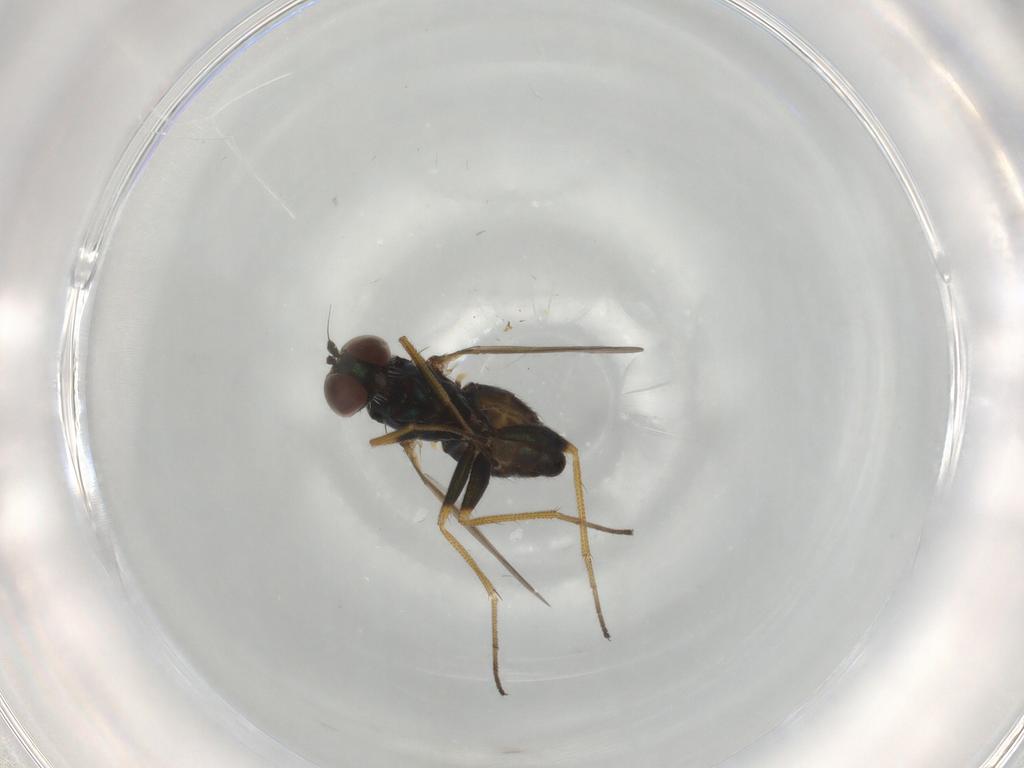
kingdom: Animalia
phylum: Arthropoda
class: Insecta
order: Diptera
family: Dolichopodidae
